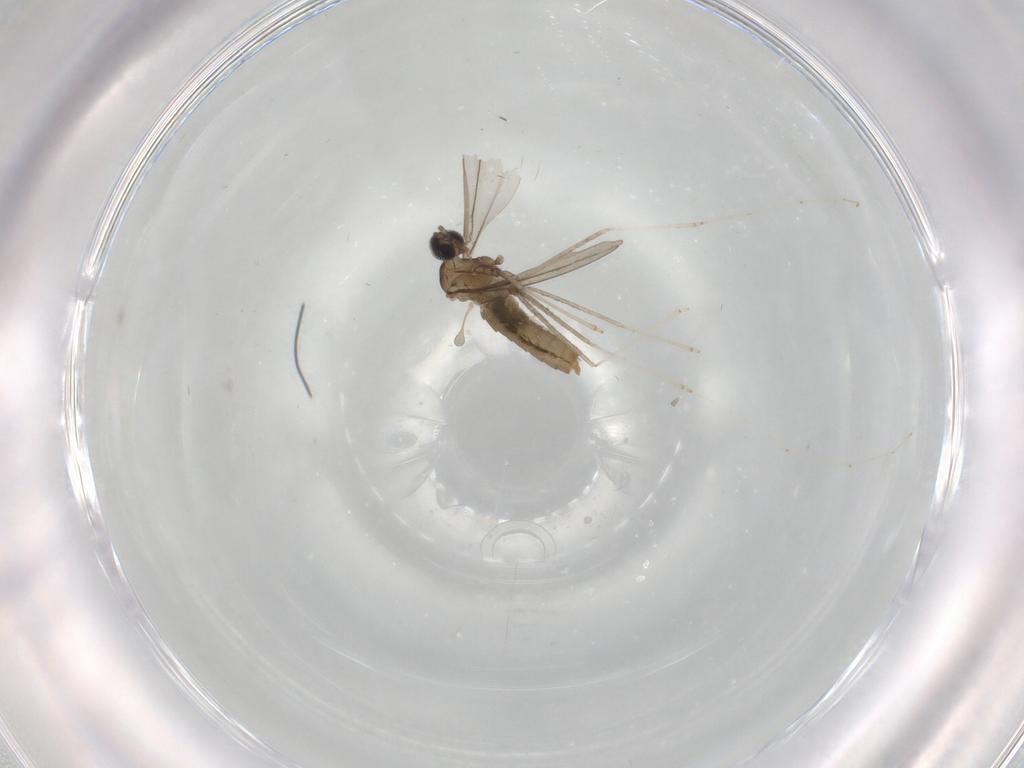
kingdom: Animalia
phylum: Arthropoda
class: Insecta
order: Diptera
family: Cecidomyiidae
